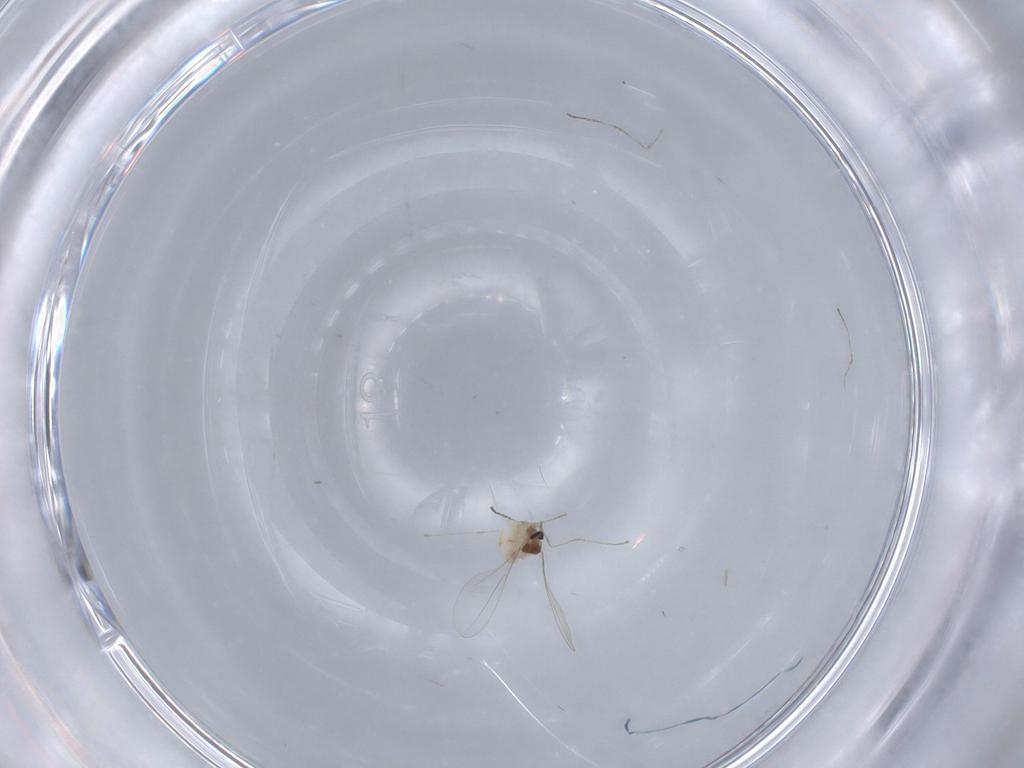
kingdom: Animalia
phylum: Arthropoda
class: Insecta
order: Diptera
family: Cecidomyiidae
